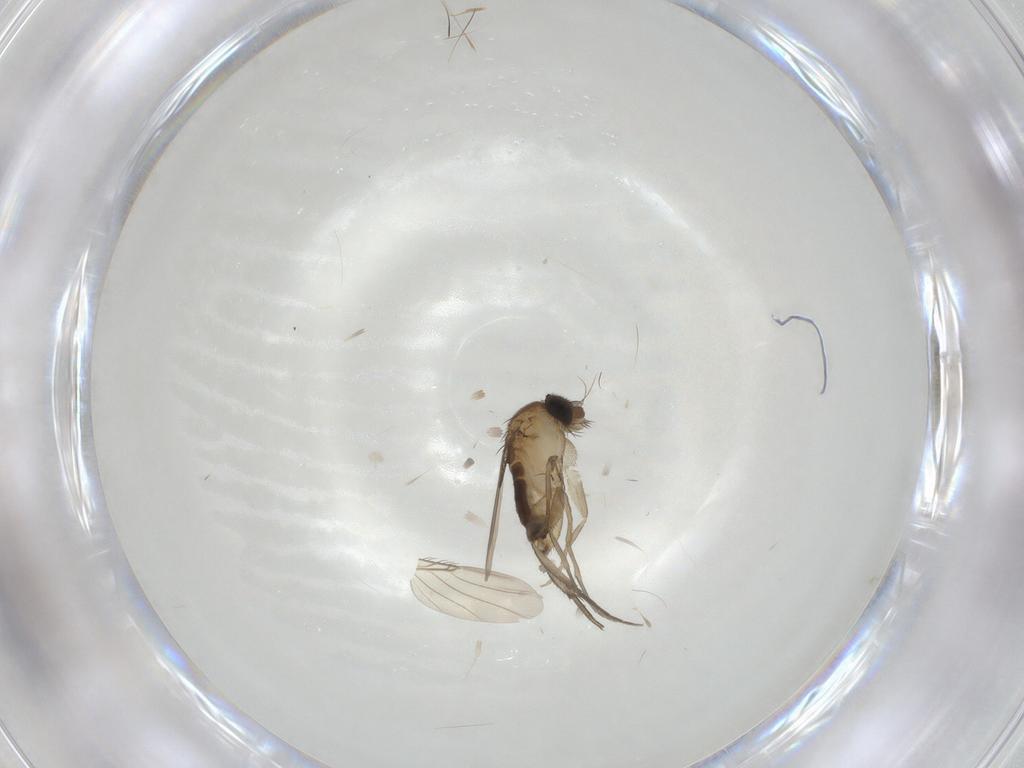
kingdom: Animalia
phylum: Arthropoda
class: Insecta
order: Diptera
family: Phoridae
